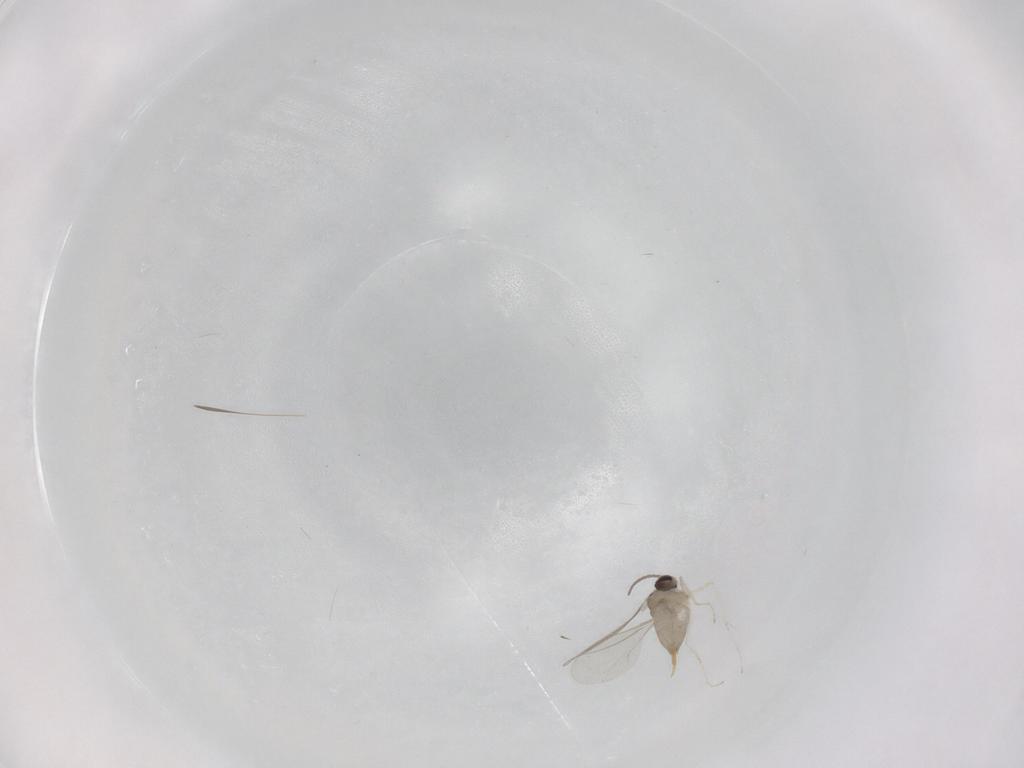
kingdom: Animalia
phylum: Arthropoda
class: Insecta
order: Diptera
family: Cecidomyiidae
